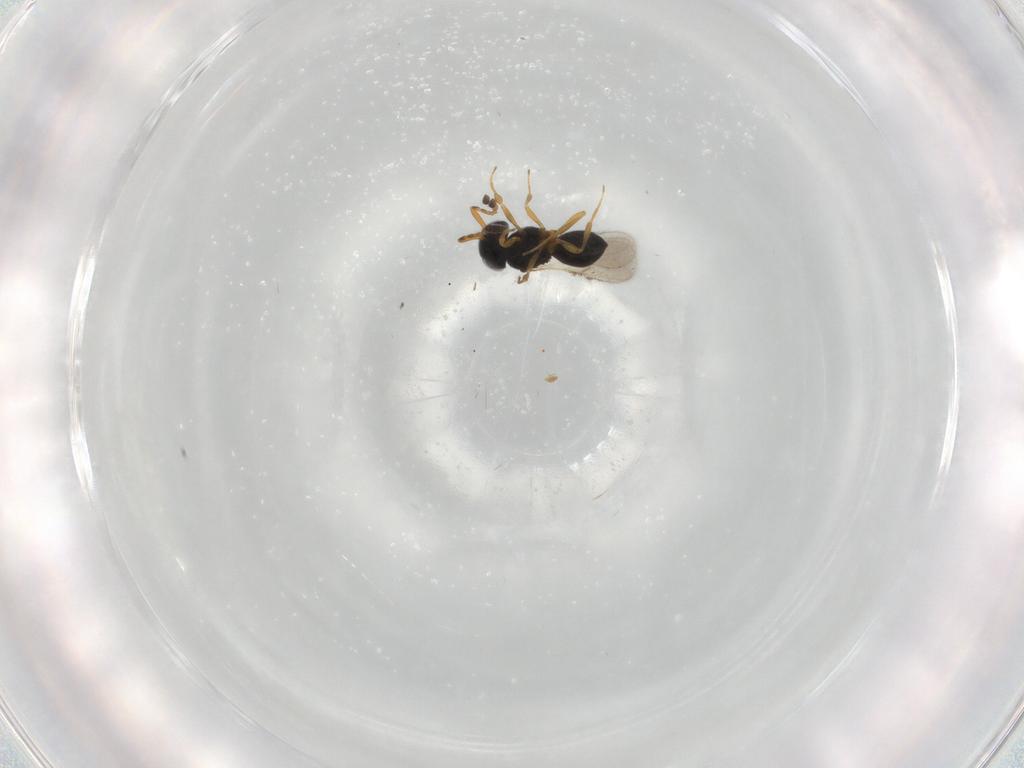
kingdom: Animalia
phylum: Arthropoda
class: Insecta
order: Hymenoptera
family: Scelionidae
